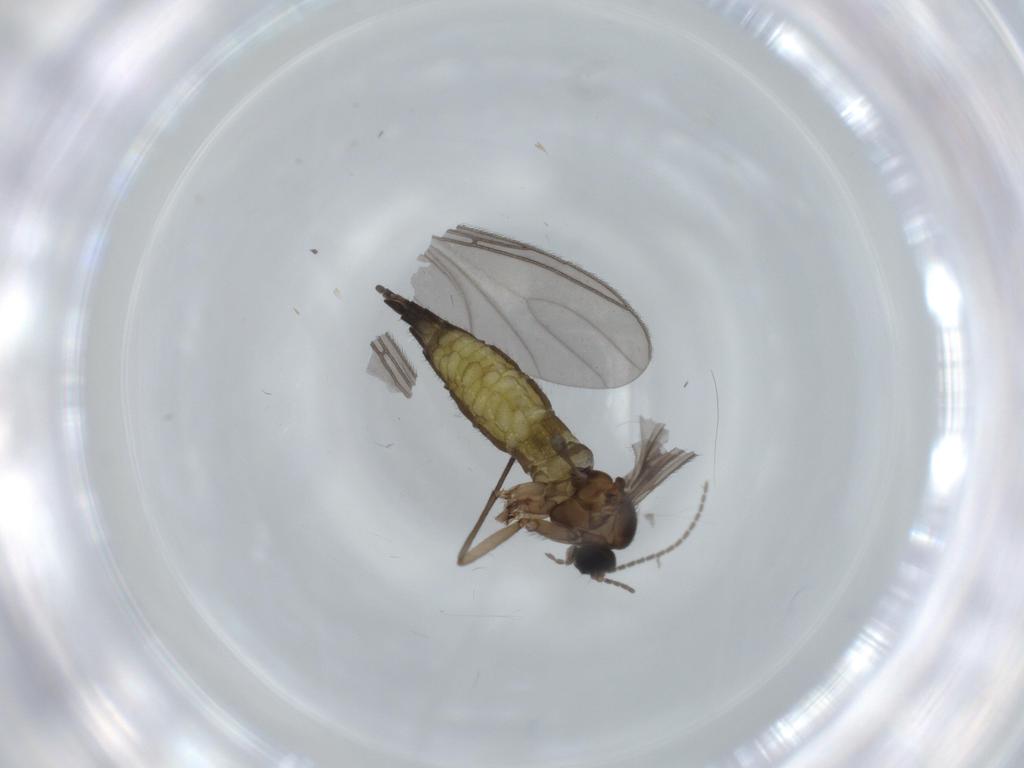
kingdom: Animalia
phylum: Arthropoda
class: Insecta
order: Diptera
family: Sciaridae
